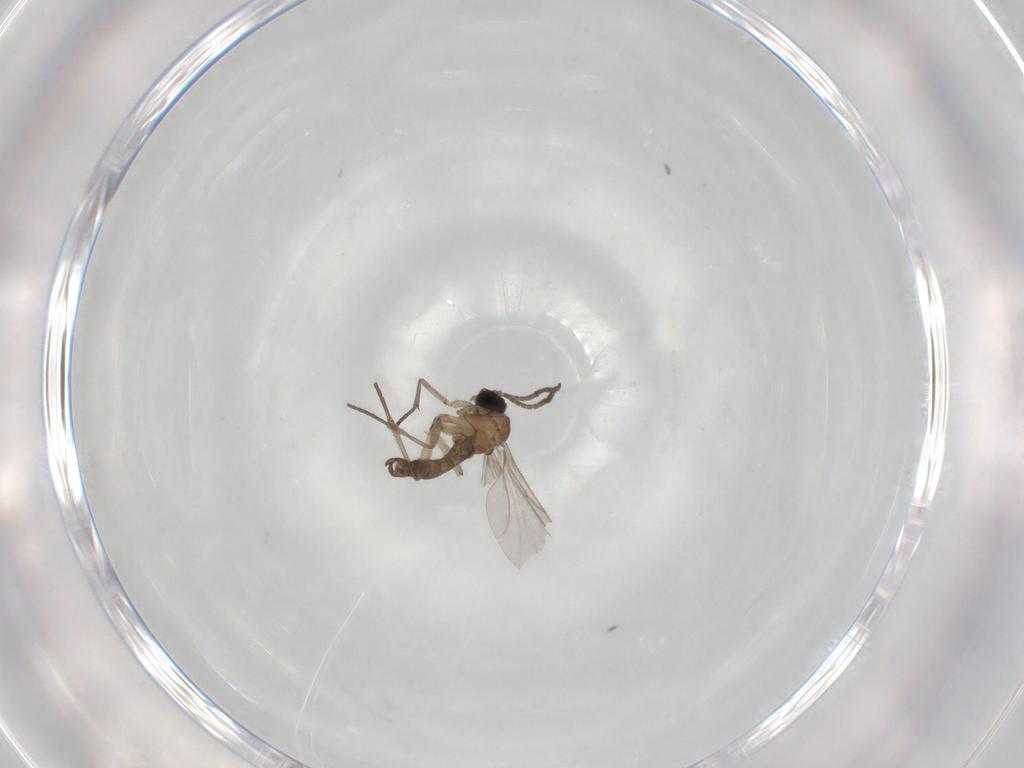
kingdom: Animalia
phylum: Arthropoda
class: Insecta
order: Diptera
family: Sciaridae
